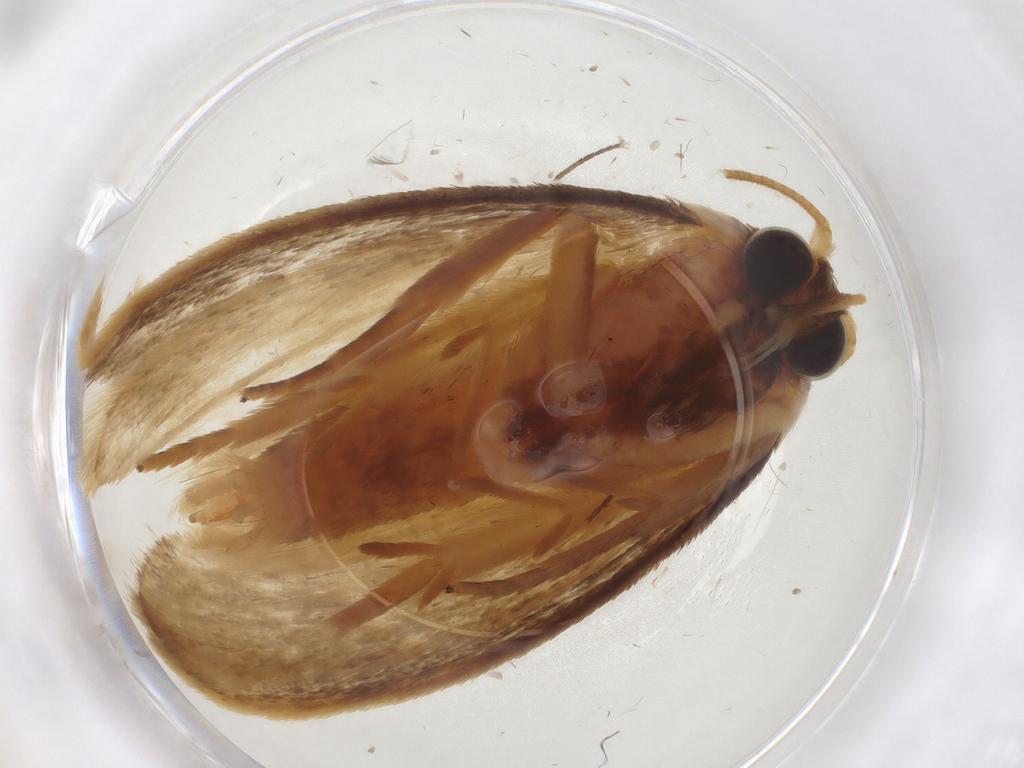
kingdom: Animalia
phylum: Arthropoda
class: Insecta
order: Lepidoptera
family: Erebidae
